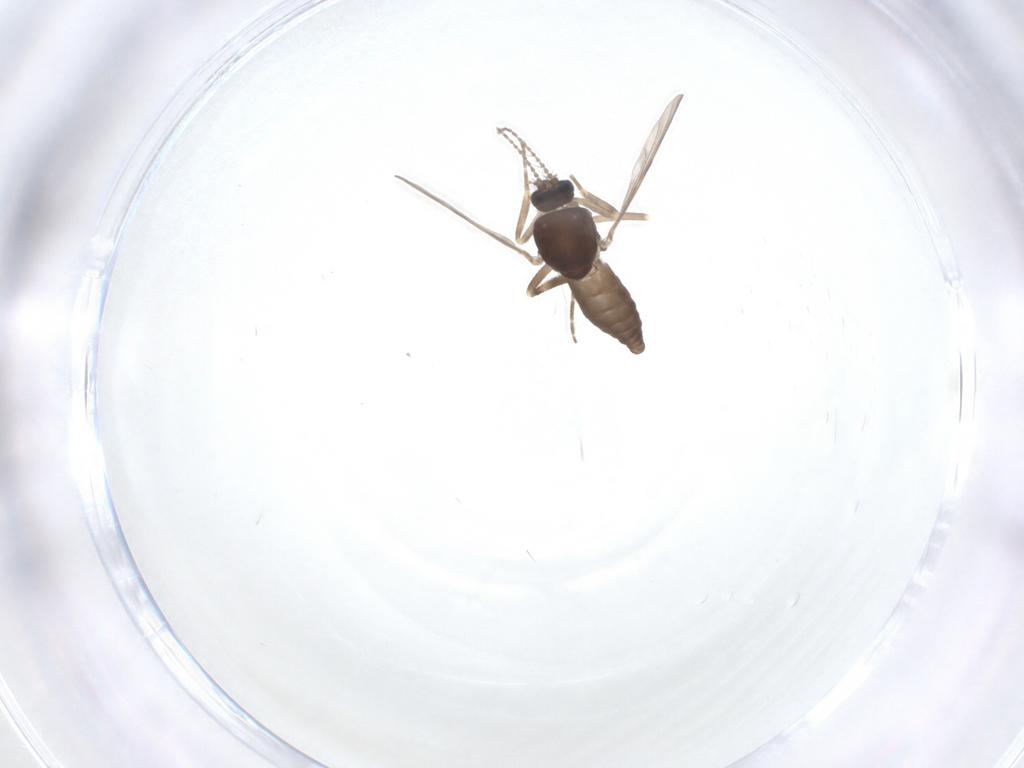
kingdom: Animalia
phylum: Arthropoda
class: Insecta
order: Diptera
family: Ceratopogonidae
